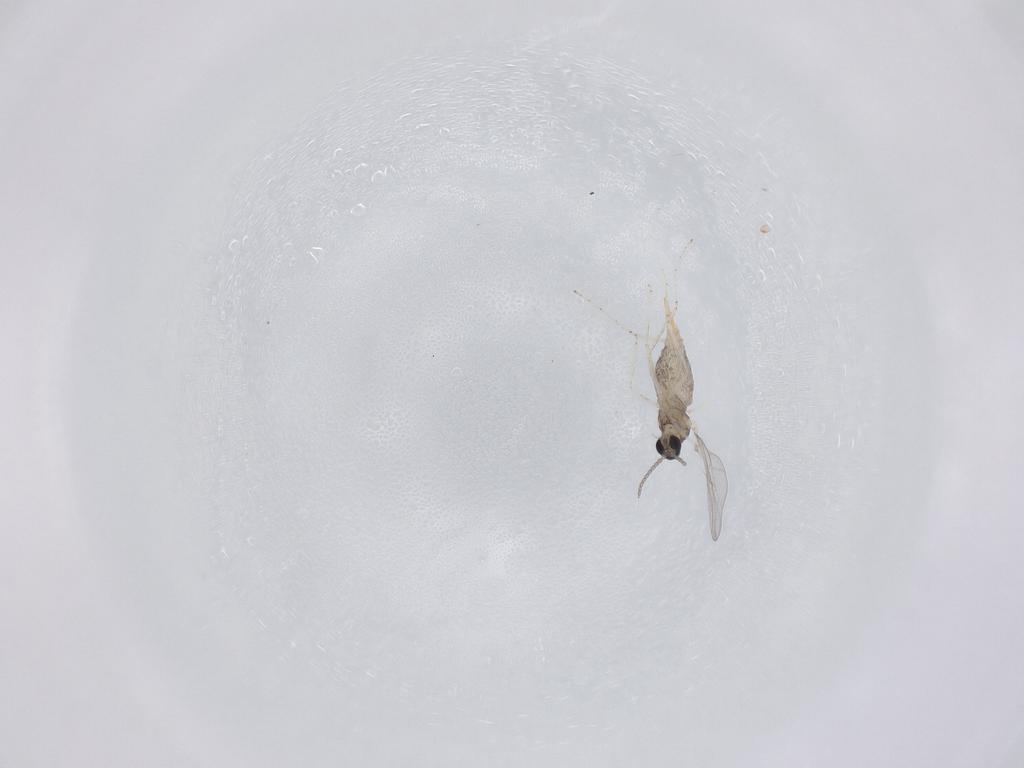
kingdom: Animalia
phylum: Arthropoda
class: Insecta
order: Diptera
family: Cecidomyiidae
